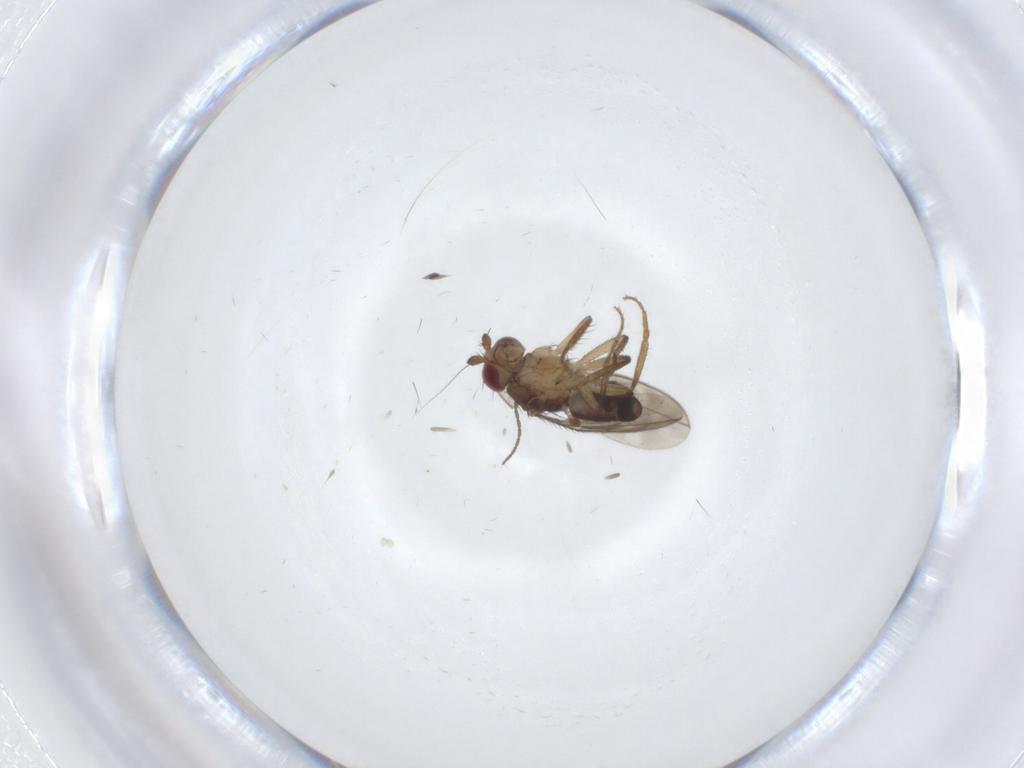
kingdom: Animalia
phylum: Arthropoda
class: Insecta
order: Diptera
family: Sphaeroceridae
